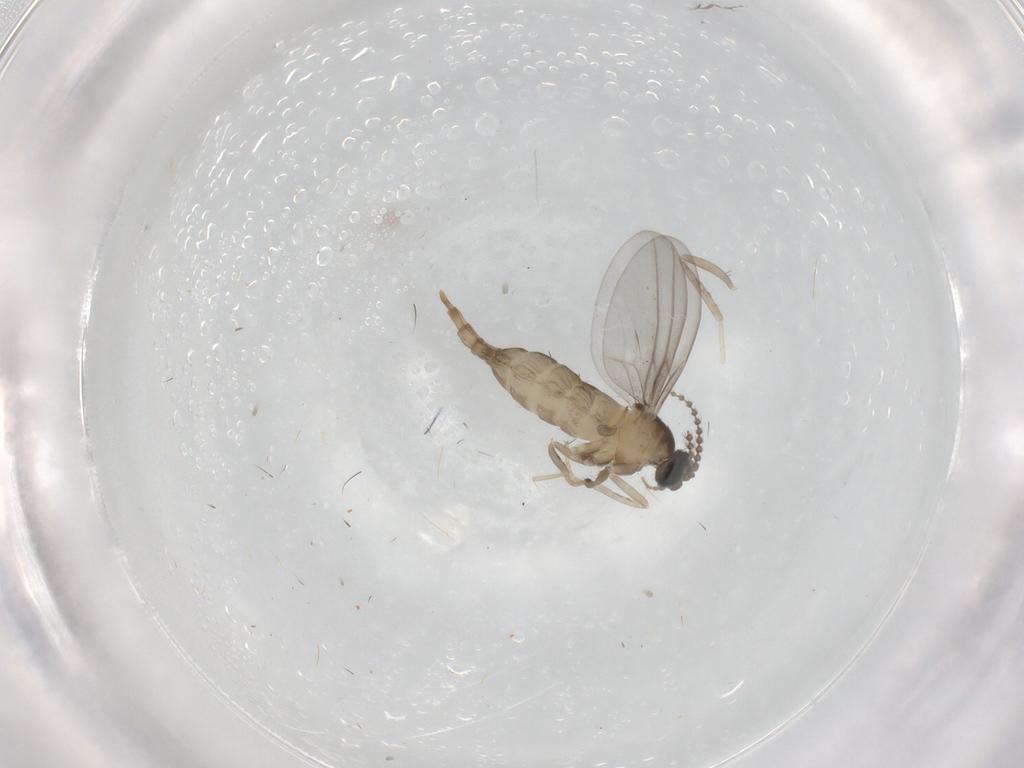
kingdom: Animalia
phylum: Arthropoda
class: Insecta
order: Diptera
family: Cecidomyiidae
